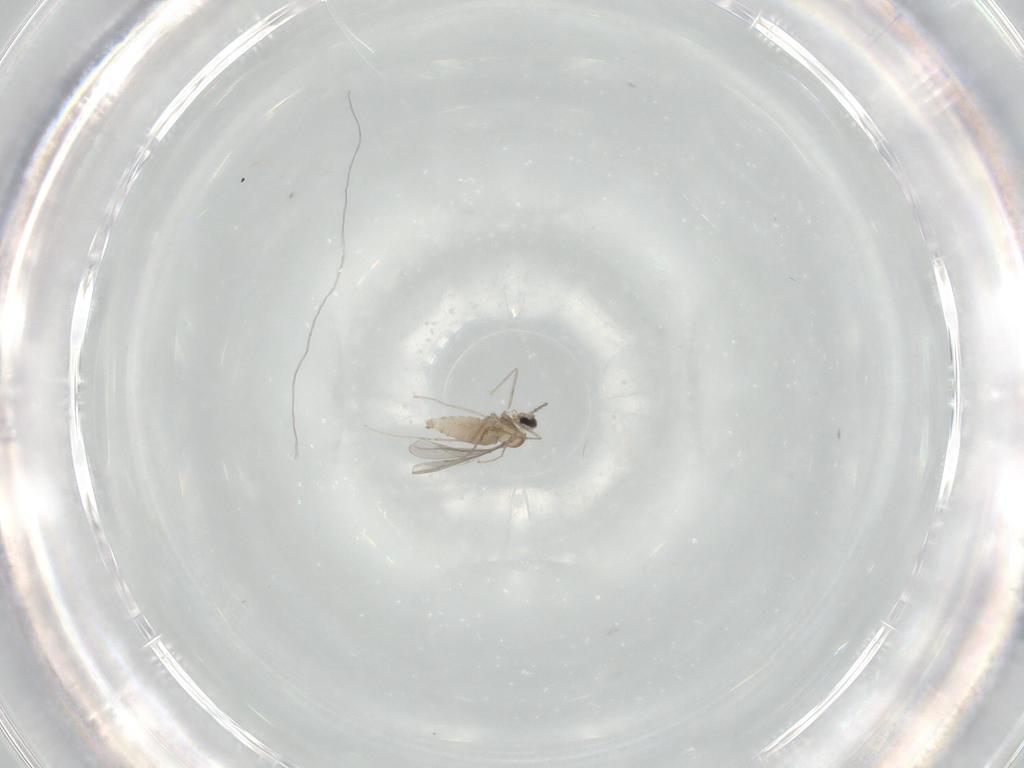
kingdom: Animalia
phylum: Arthropoda
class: Insecta
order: Diptera
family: Cecidomyiidae
